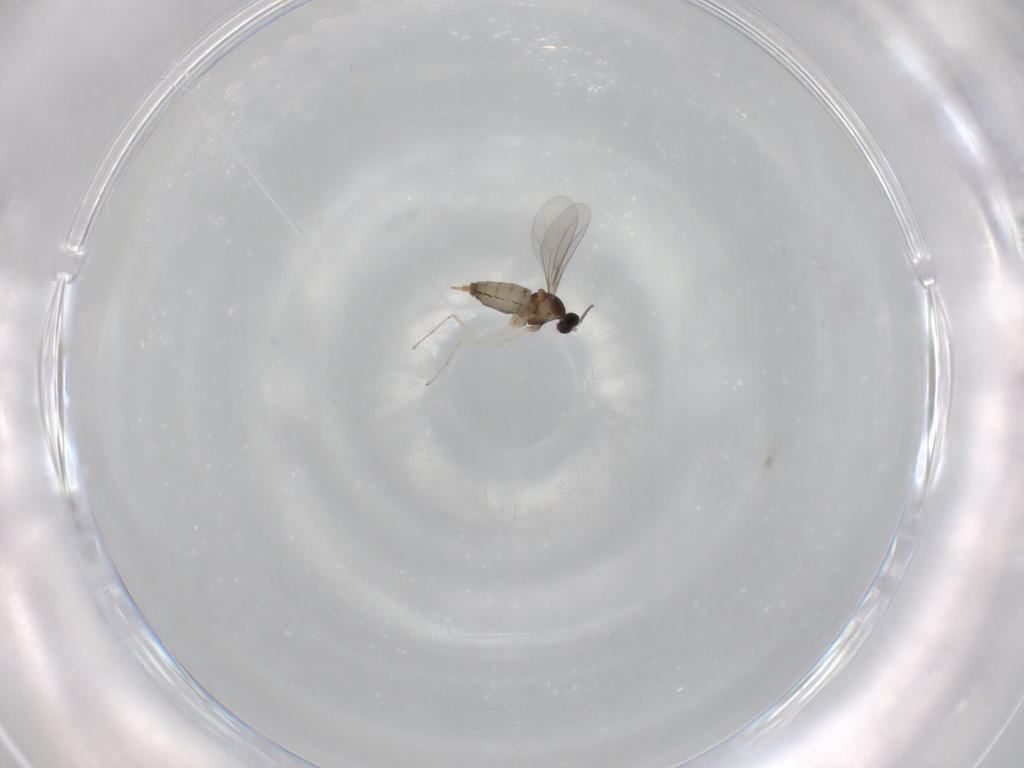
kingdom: Animalia
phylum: Arthropoda
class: Insecta
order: Diptera
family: Cecidomyiidae
